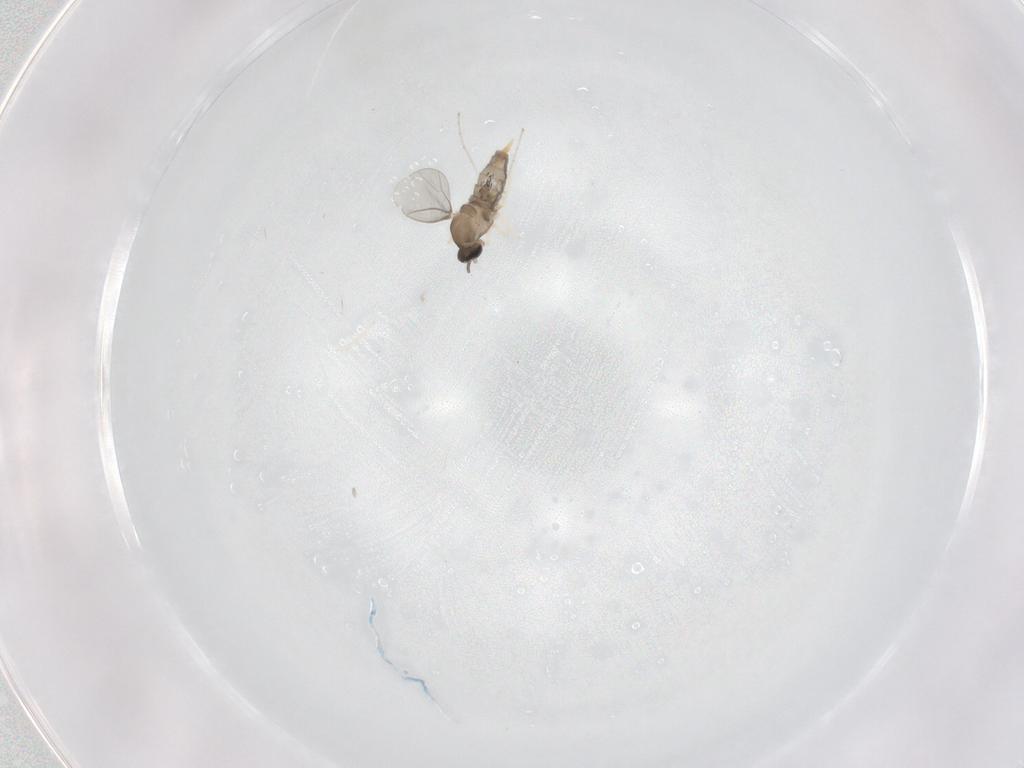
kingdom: Animalia
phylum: Arthropoda
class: Insecta
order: Diptera
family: Cecidomyiidae
